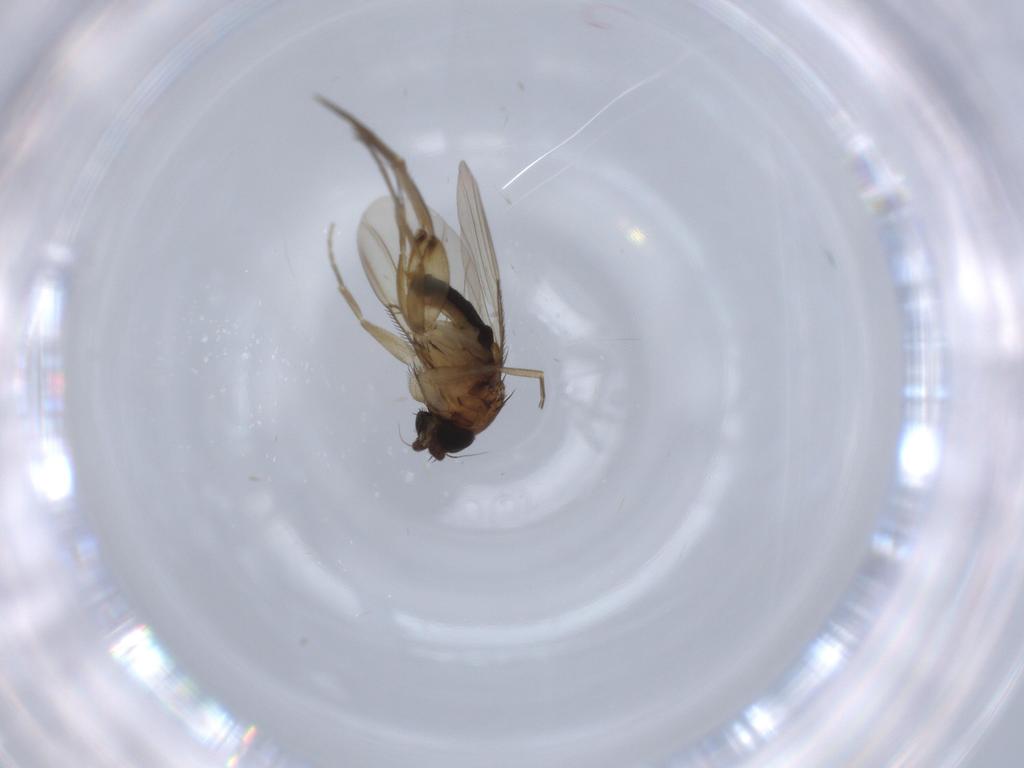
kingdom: Animalia
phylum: Arthropoda
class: Insecta
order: Diptera
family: Phoridae
